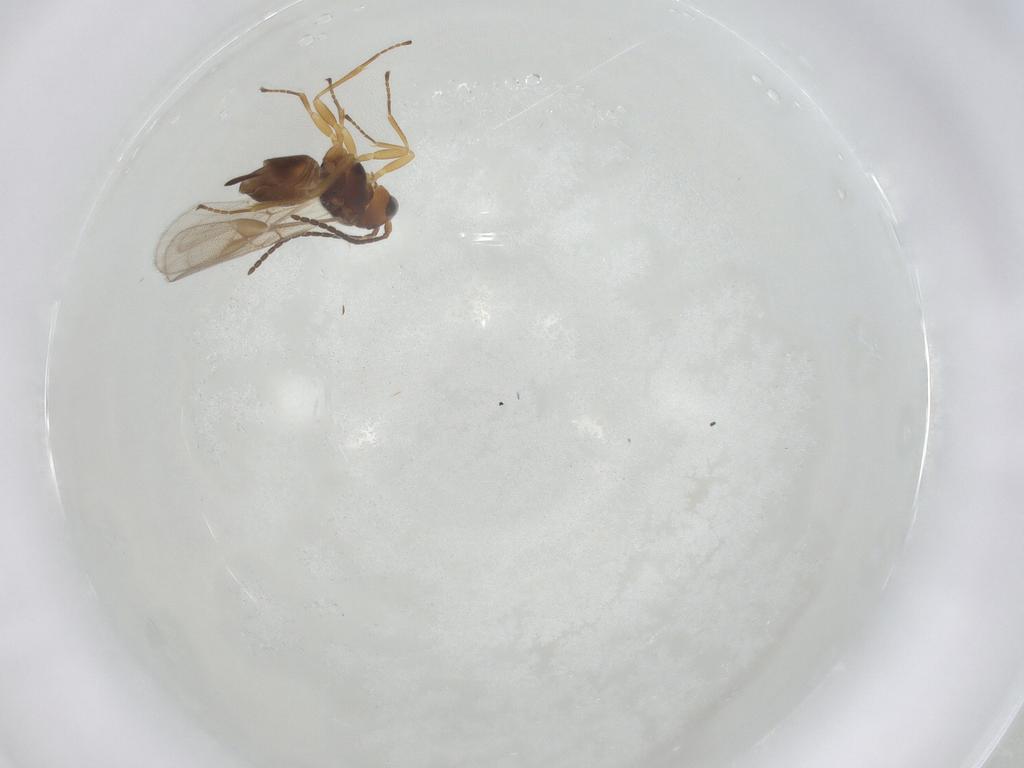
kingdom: Animalia
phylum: Arthropoda
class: Insecta
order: Hymenoptera
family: Braconidae
